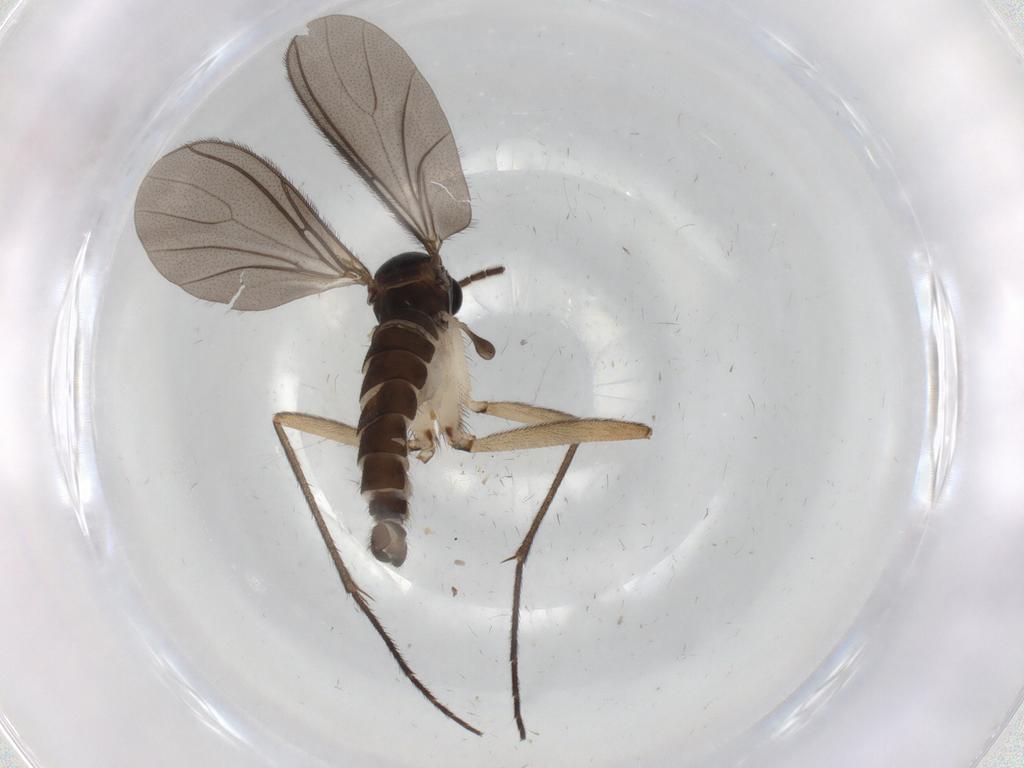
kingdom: Animalia
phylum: Arthropoda
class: Insecta
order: Diptera
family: Sciaridae
